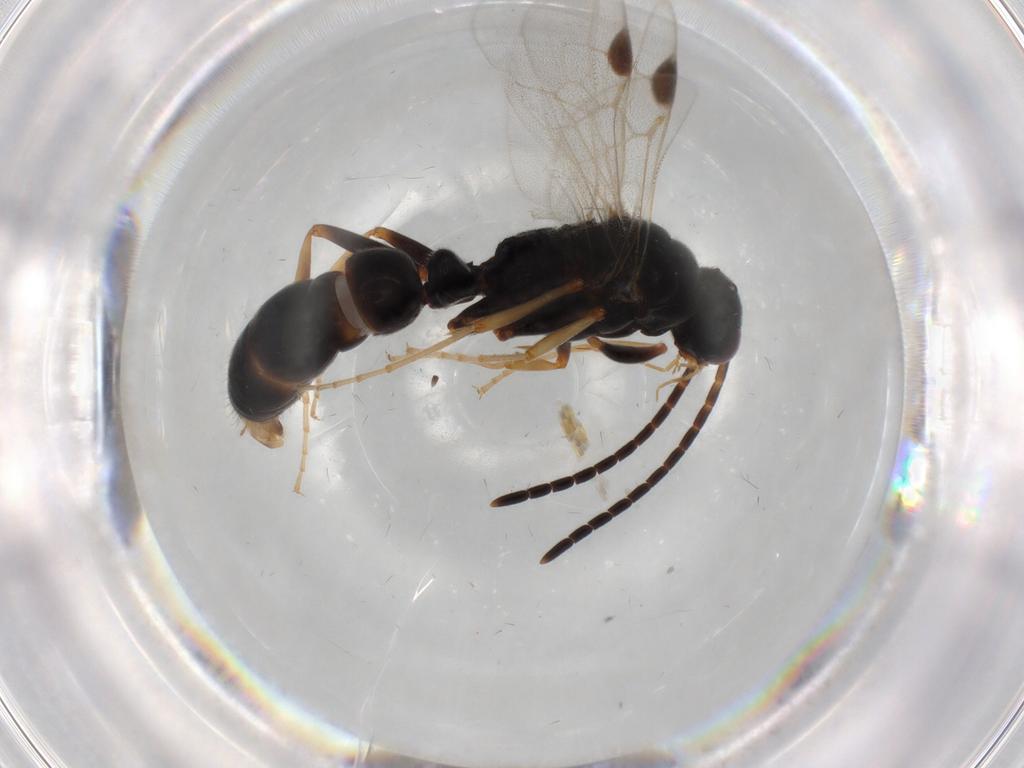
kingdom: Animalia
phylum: Arthropoda
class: Insecta
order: Hymenoptera
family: Formicidae
